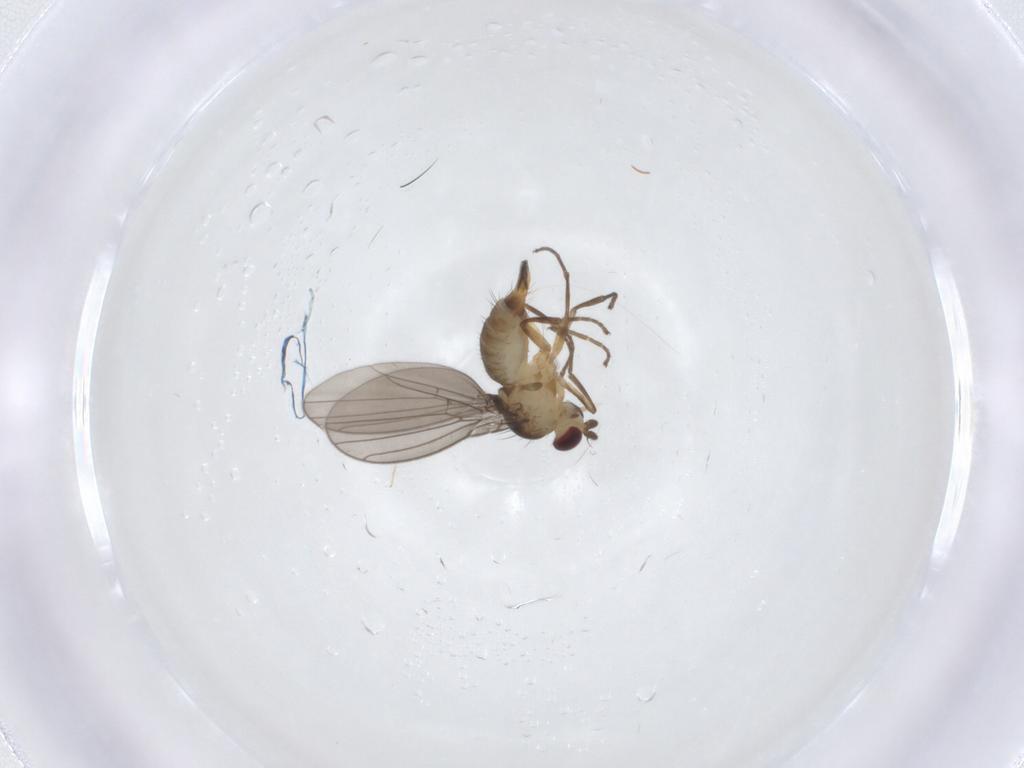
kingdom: Animalia
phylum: Arthropoda
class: Insecta
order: Diptera
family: Agromyzidae
